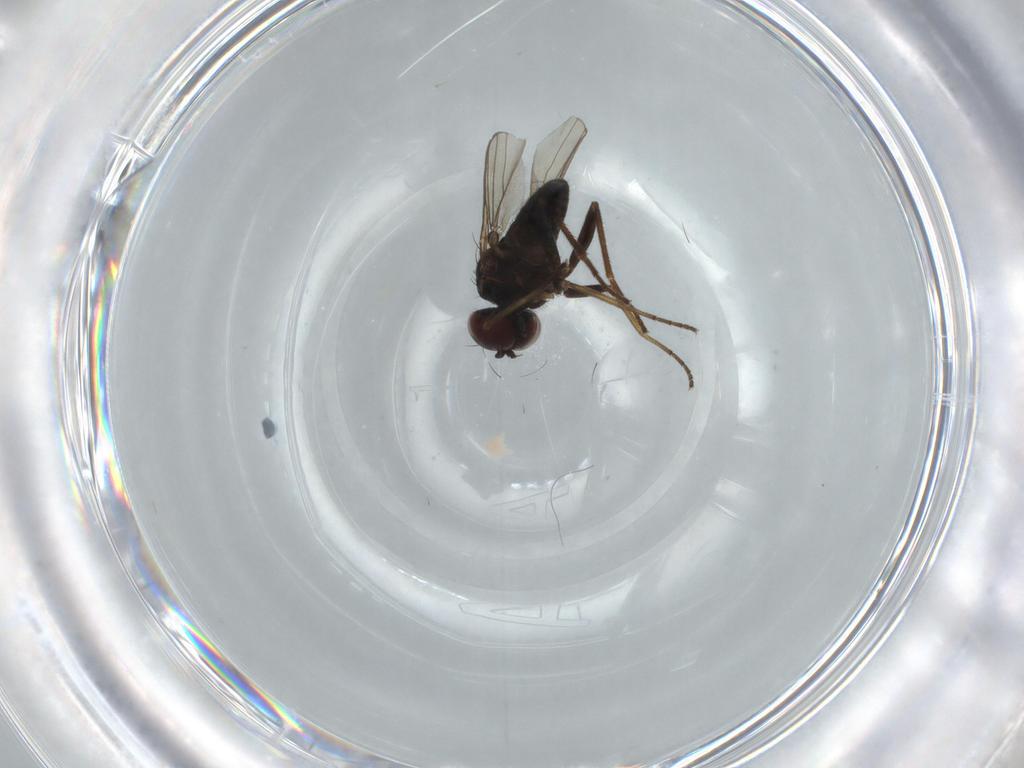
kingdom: Animalia
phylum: Arthropoda
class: Insecta
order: Diptera
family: Dolichopodidae
